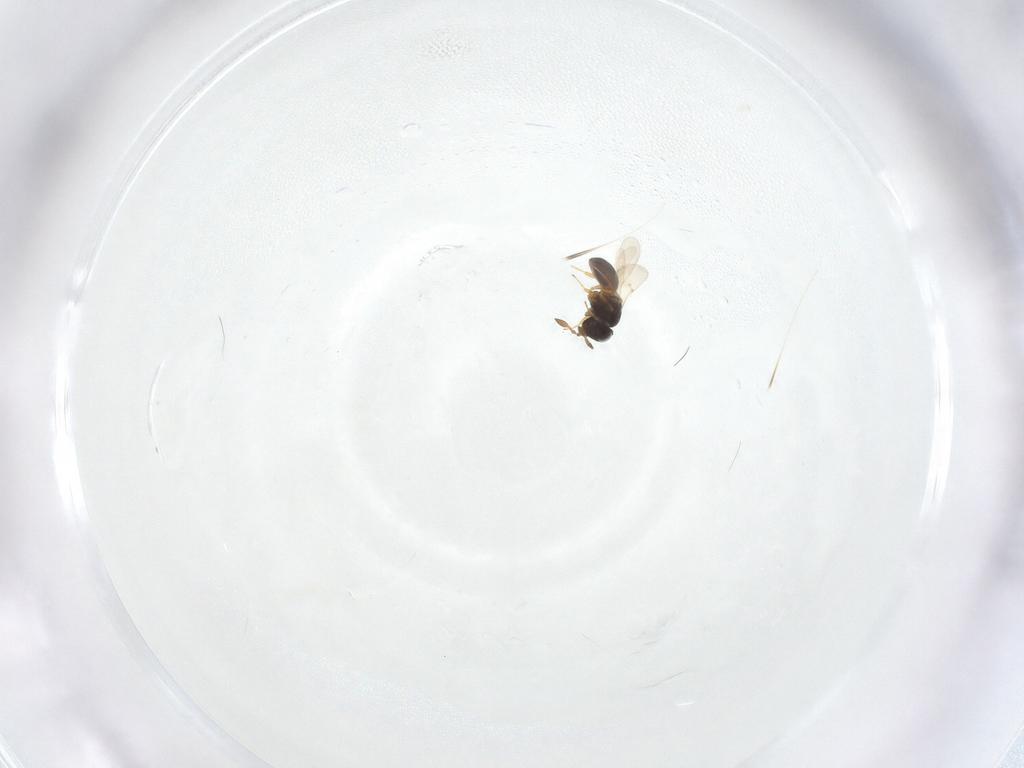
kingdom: Animalia
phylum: Arthropoda
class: Insecta
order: Hymenoptera
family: Scelionidae
